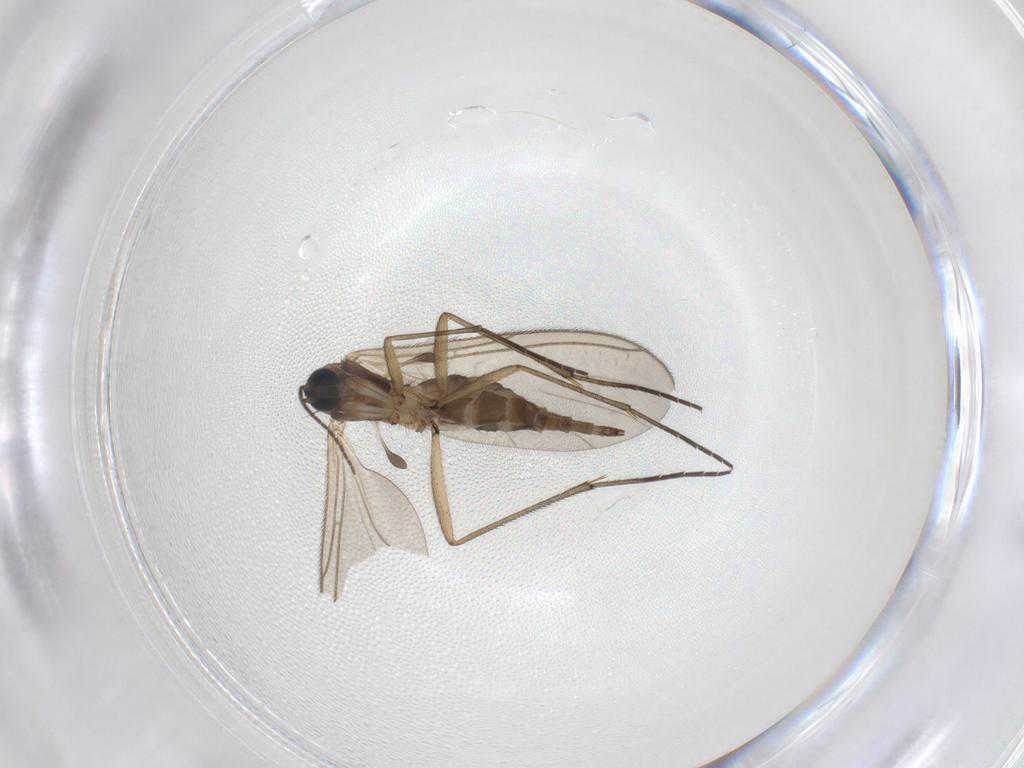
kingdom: Animalia
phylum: Arthropoda
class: Insecta
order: Diptera
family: Sciaridae
